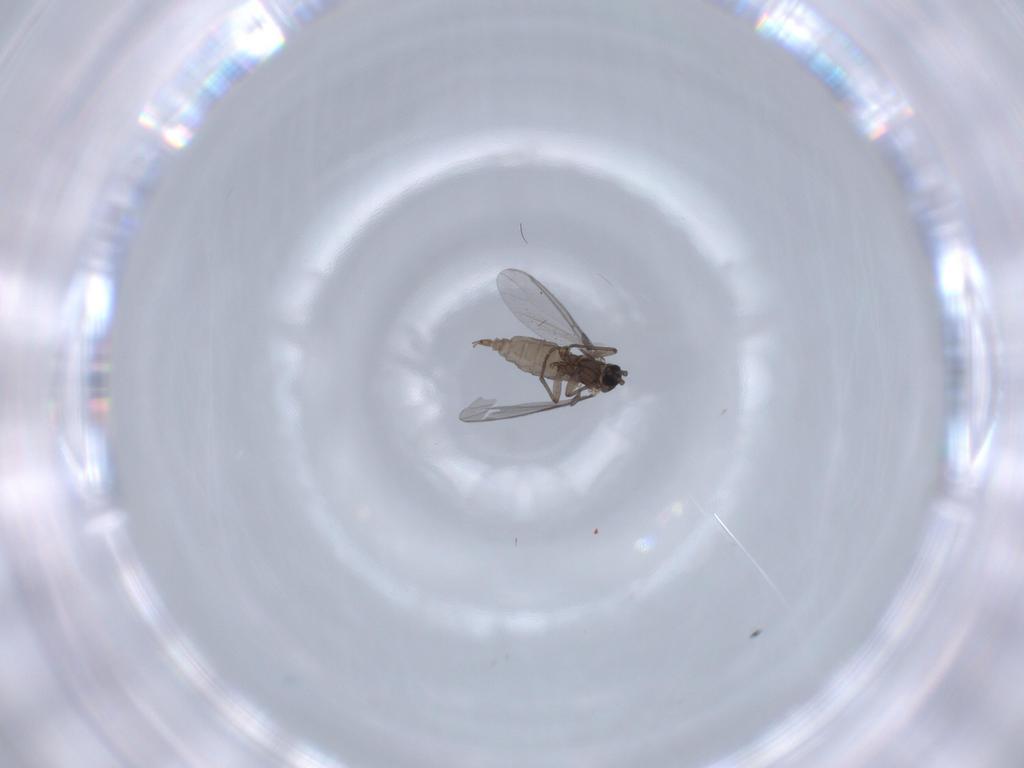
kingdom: Animalia
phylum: Arthropoda
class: Insecta
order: Diptera
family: Sciaridae
